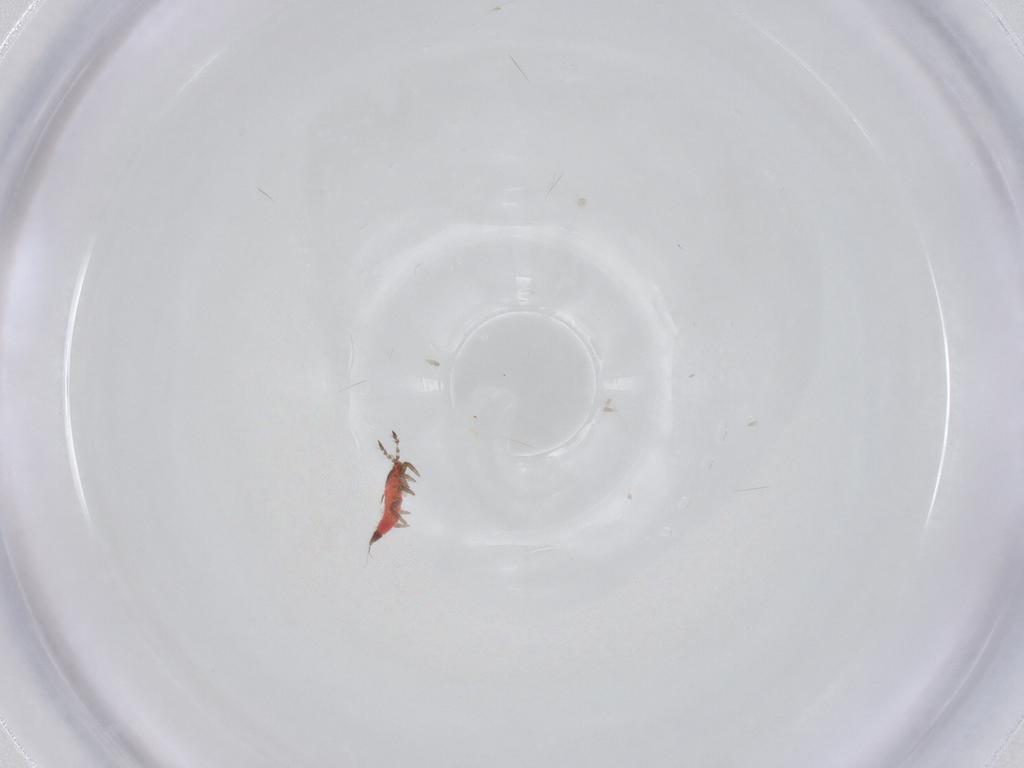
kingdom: Animalia
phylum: Arthropoda
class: Insecta
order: Thysanoptera
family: Phlaeothripidae
